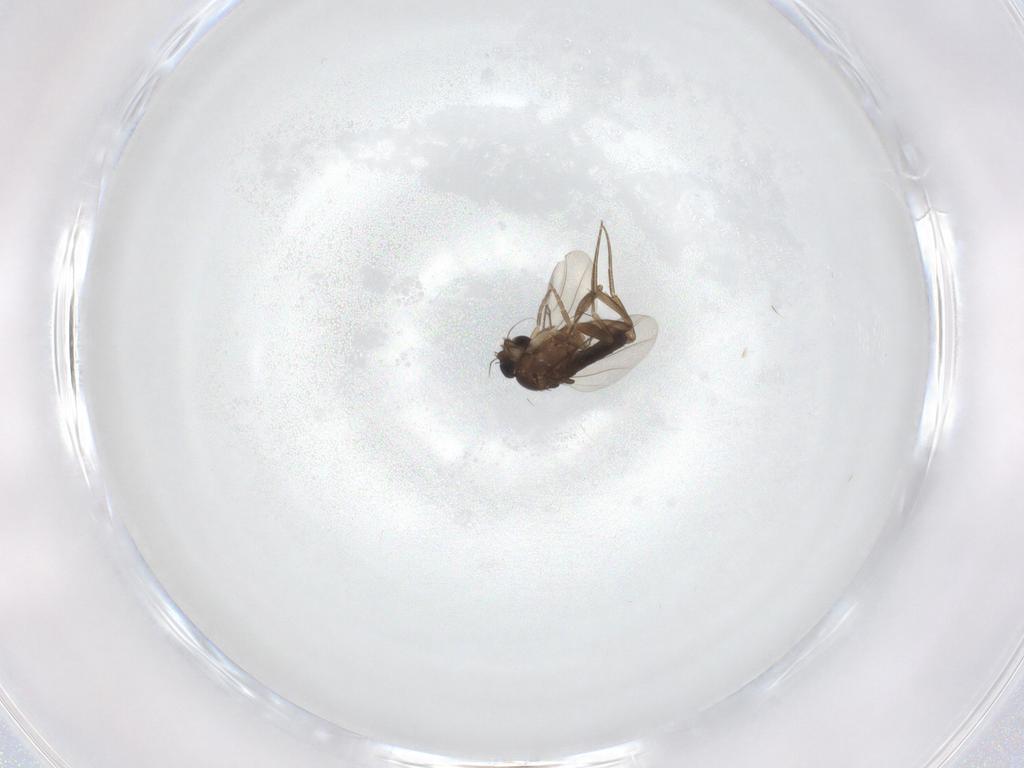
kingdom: Animalia
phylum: Arthropoda
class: Insecta
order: Diptera
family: Phoridae
